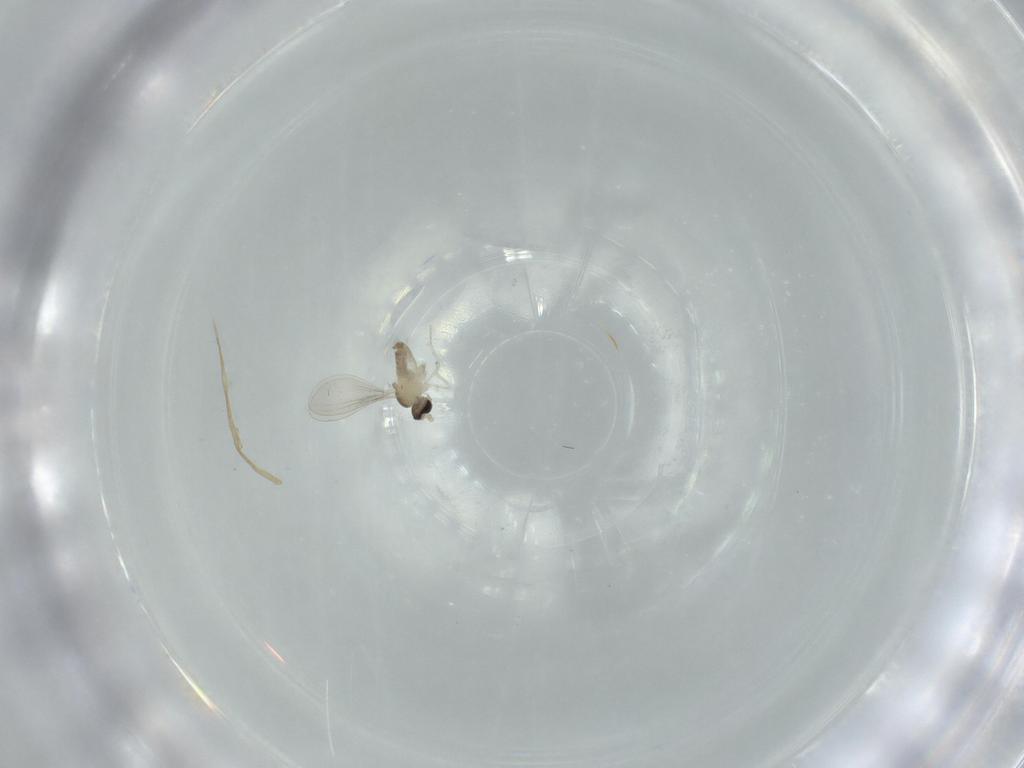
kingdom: Animalia
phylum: Arthropoda
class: Insecta
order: Diptera
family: Cecidomyiidae
